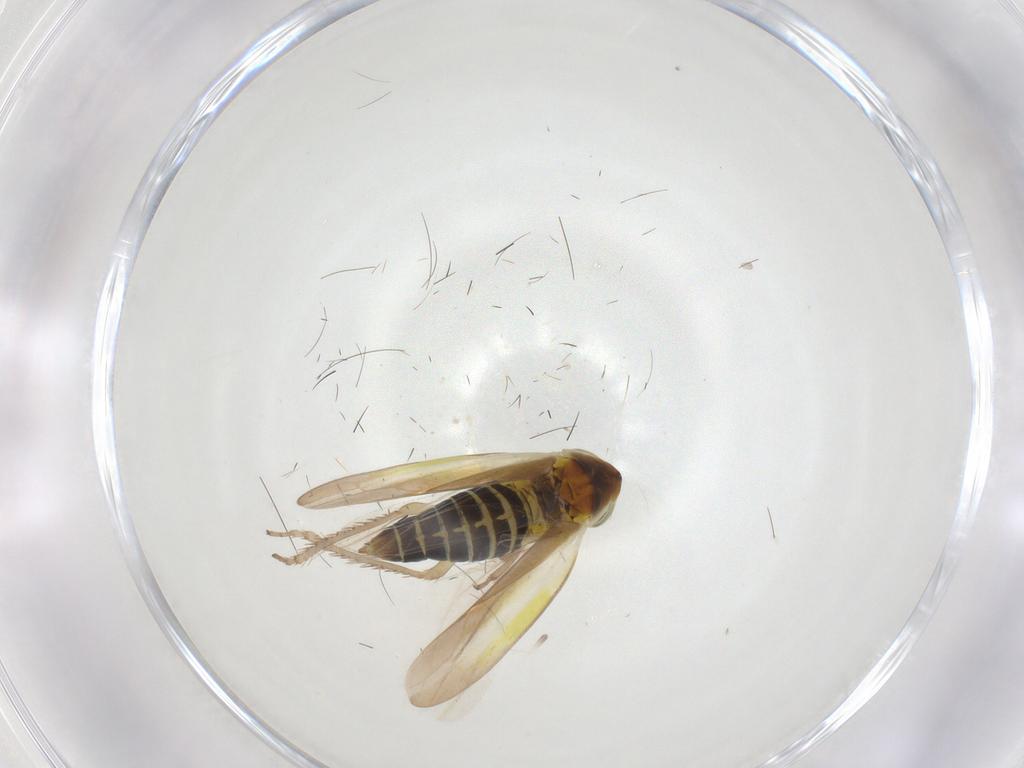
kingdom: Animalia
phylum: Arthropoda
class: Insecta
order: Hemiptera
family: Cicadellidae
